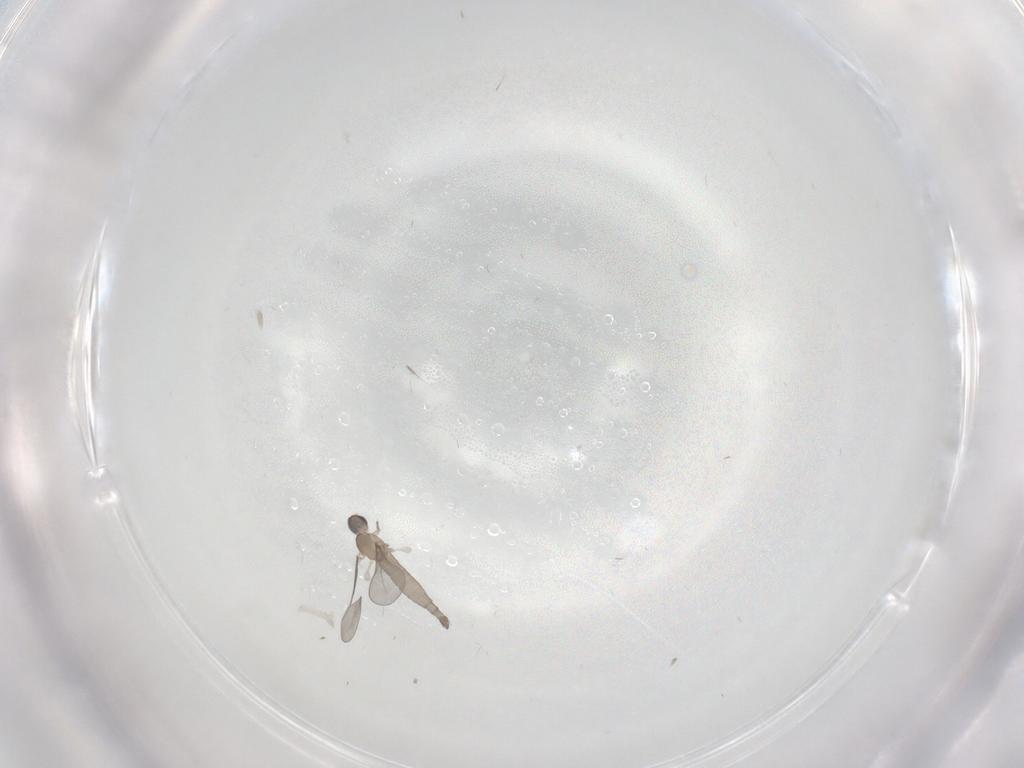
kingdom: Animalia
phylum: Arthropoda
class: Insecta
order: Diptera
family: Cecidomyiidae
